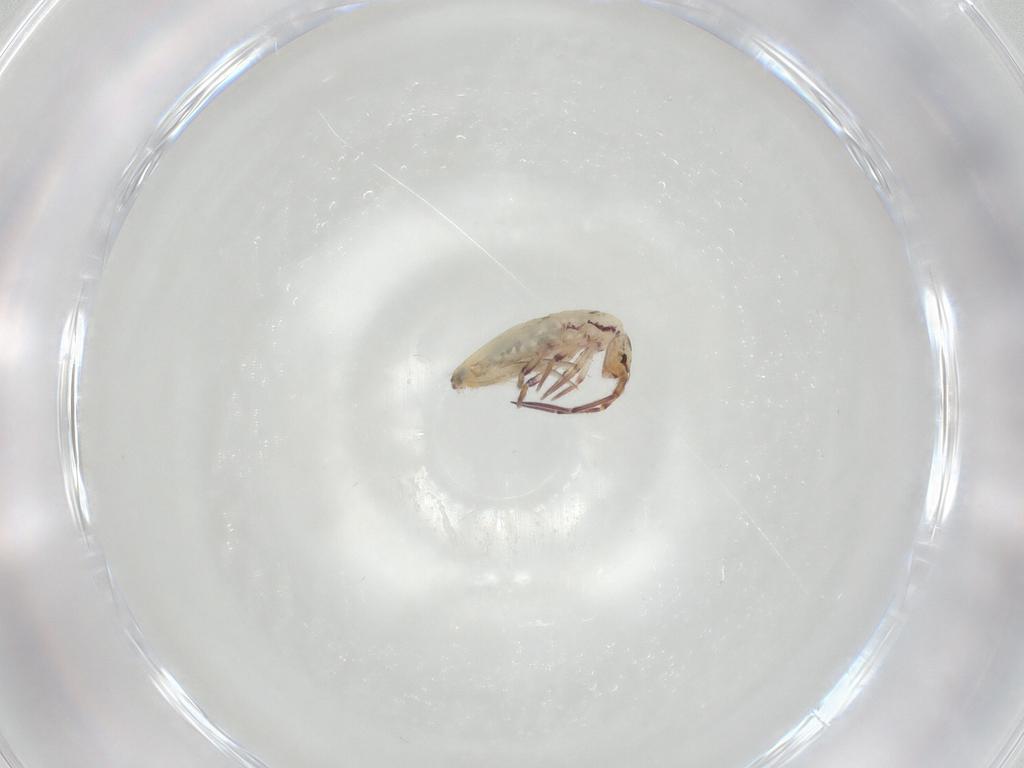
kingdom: Animalia
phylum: Arthropoda
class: Collembola
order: Entomobryomorpha
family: Entomobryidae
